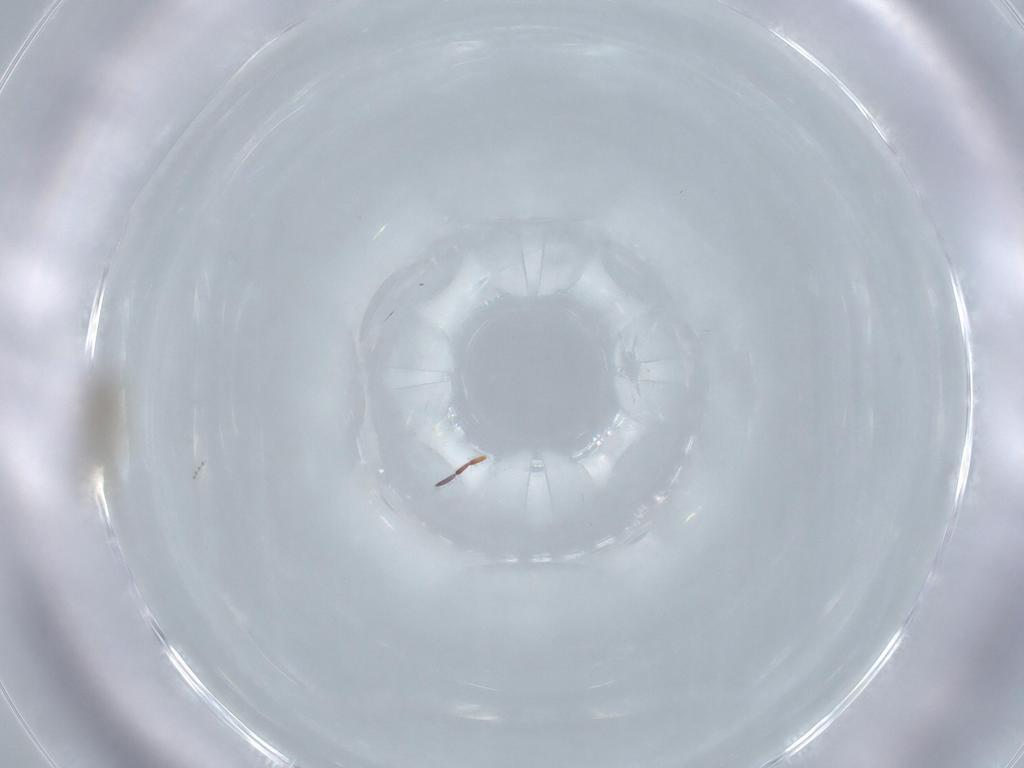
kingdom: Animalia
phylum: Arthropoda
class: Collembola
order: Entomobryomorpha
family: Entomobryidae
